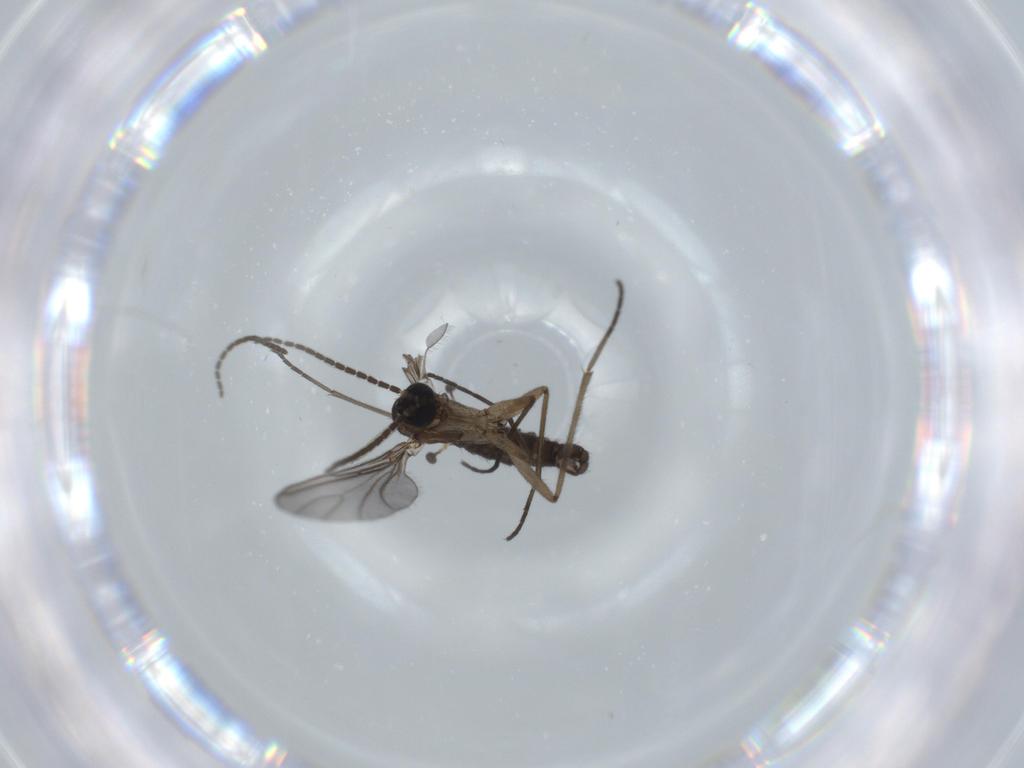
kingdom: Animalia
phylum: Arthropoda
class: Insecta
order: Diptera
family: Sciaridae
